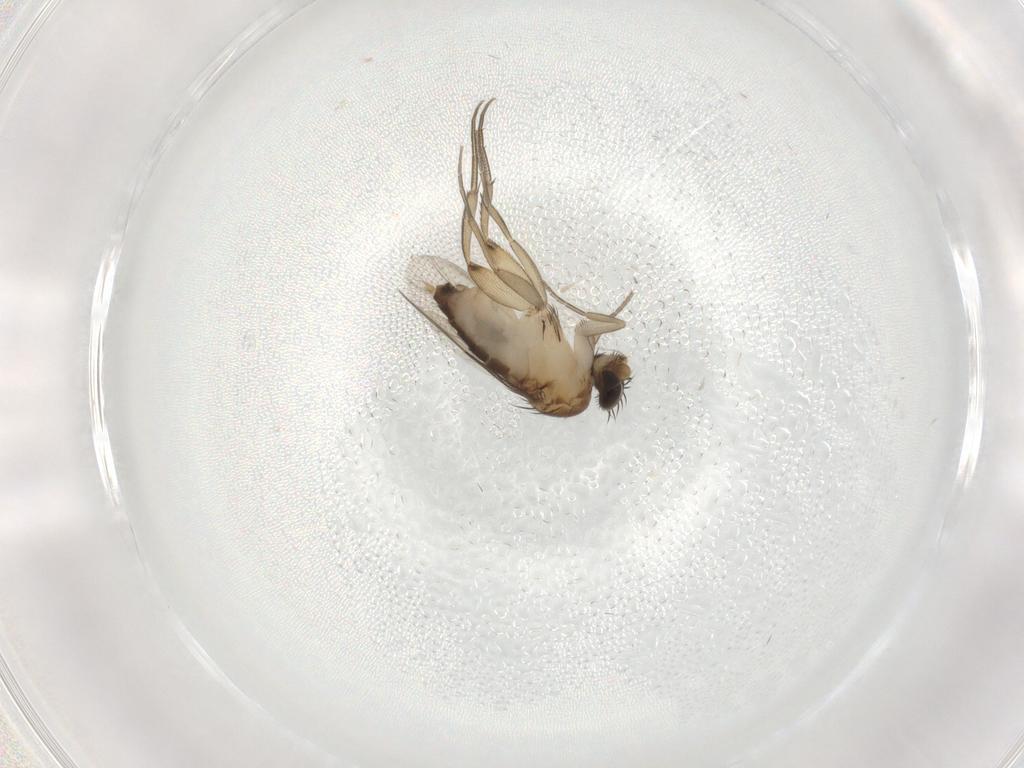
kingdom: Animalia
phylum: Arthropoda
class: Insecta
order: Diptera
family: Phoridae
